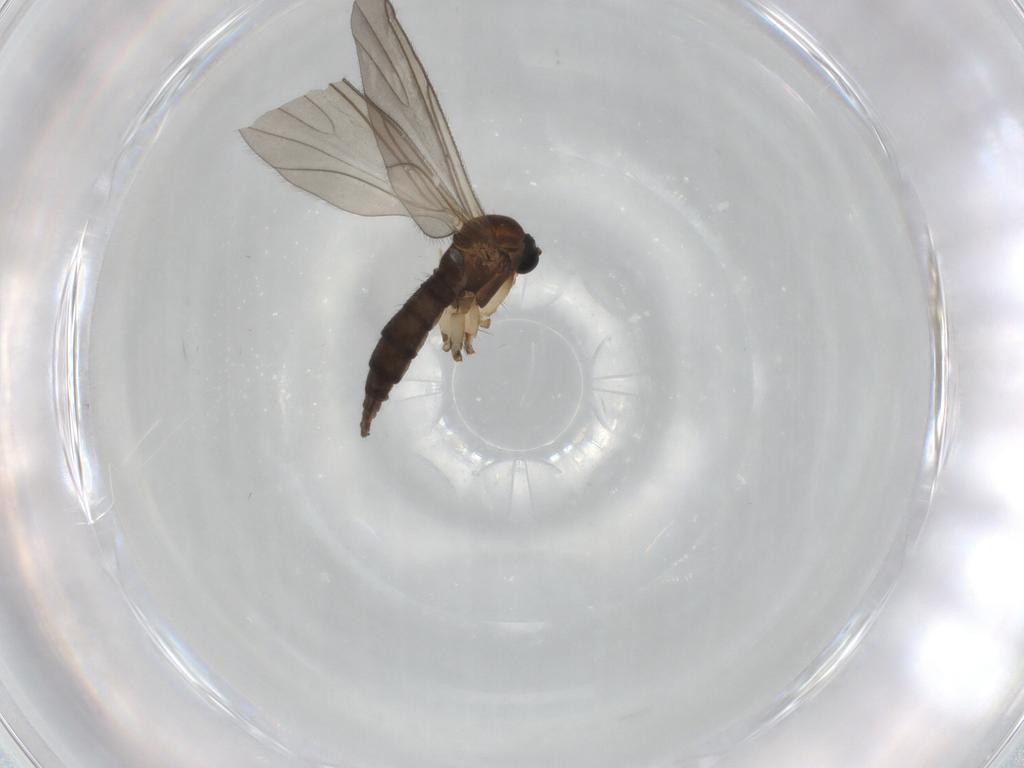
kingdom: Animalia
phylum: Arthropoda
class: Insecta
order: Diptera
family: Sciaridae
